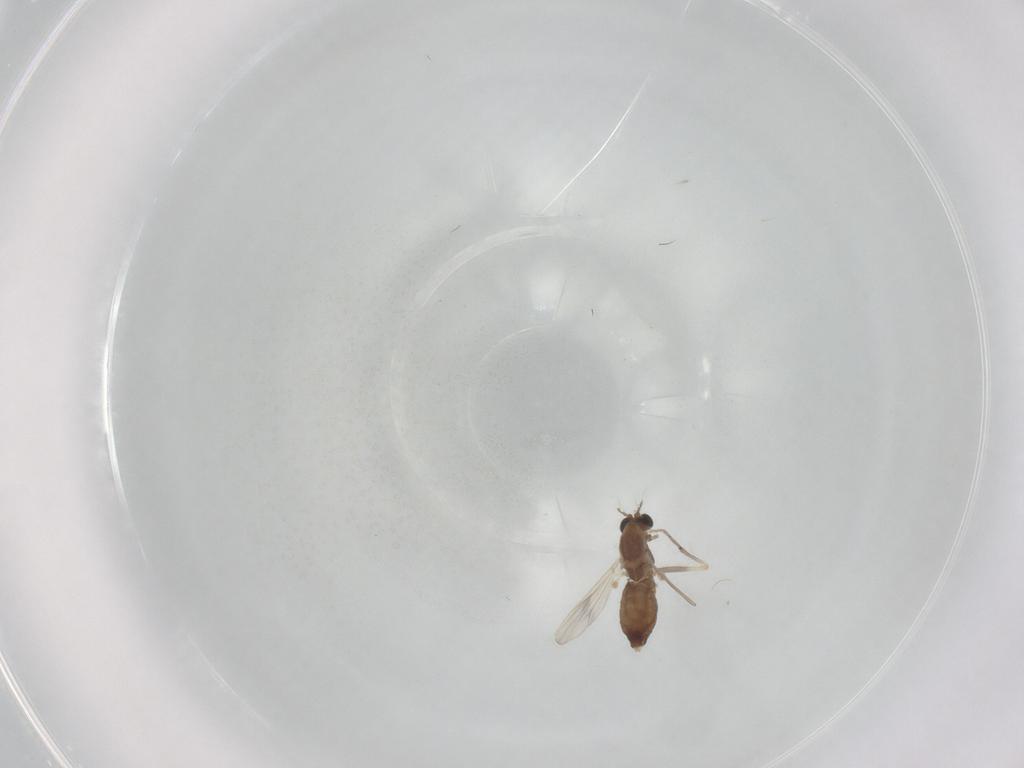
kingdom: Animalia
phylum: Arthropoda
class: Insecta
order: Diptera
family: Chironomidae
